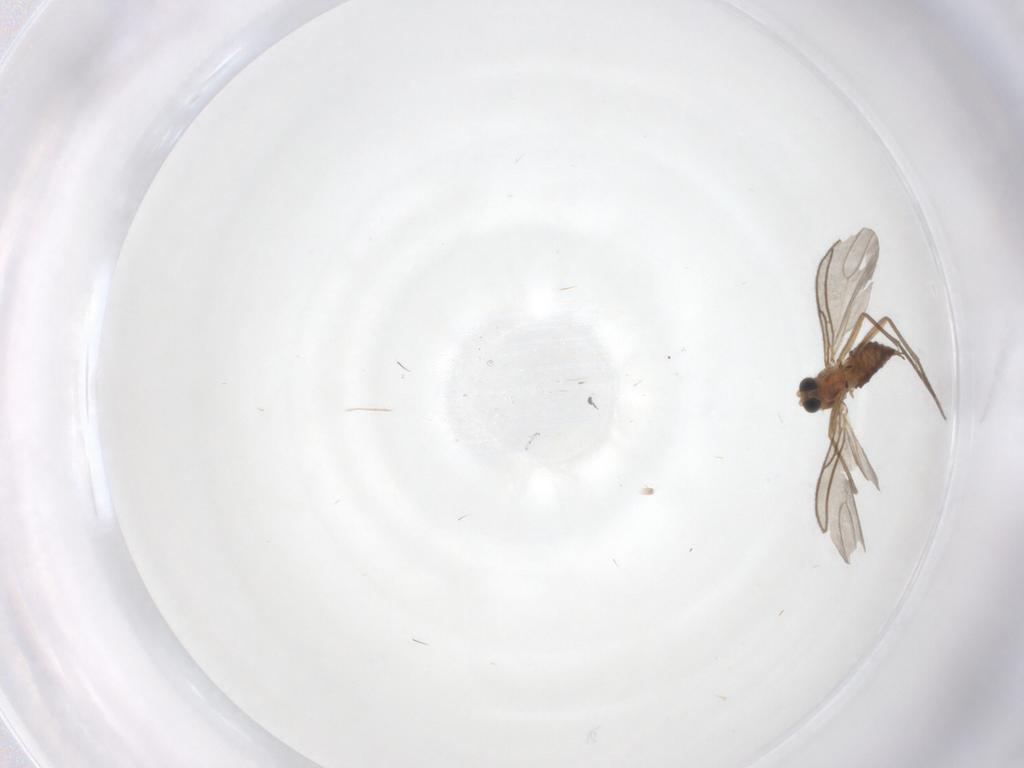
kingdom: Animalia
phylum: Arthropoda
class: Insecta
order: Diptera
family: Sciaridae
